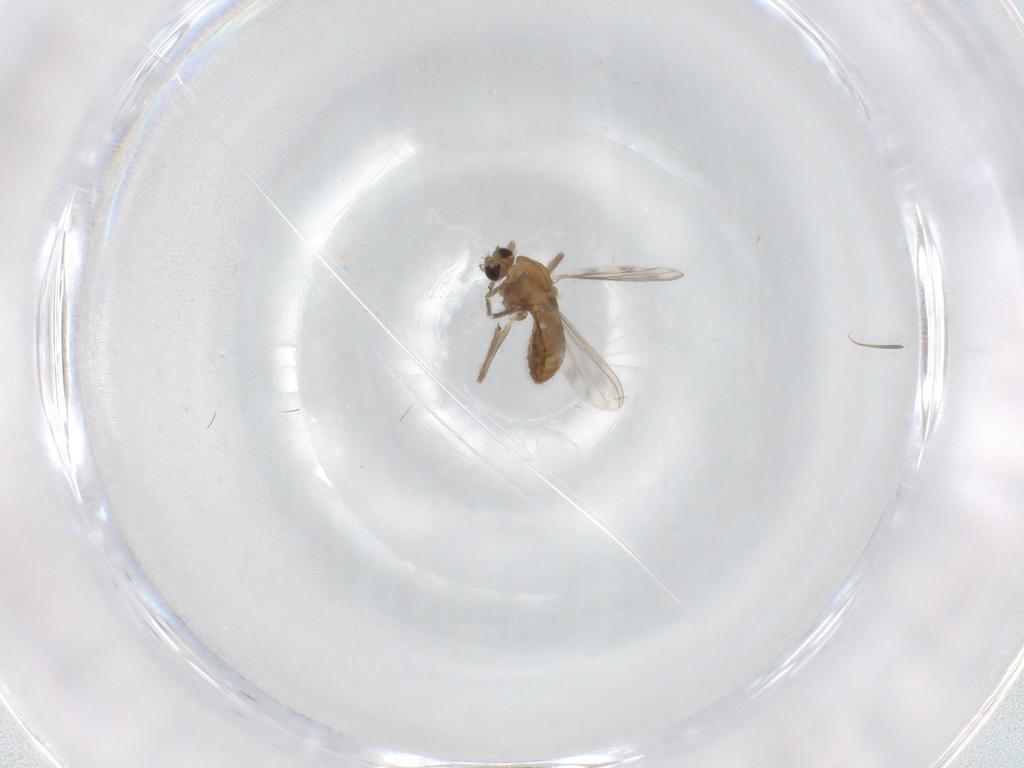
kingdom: Animalia
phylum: Arthropoda
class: Insecta
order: Diptera
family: Chironomidae
